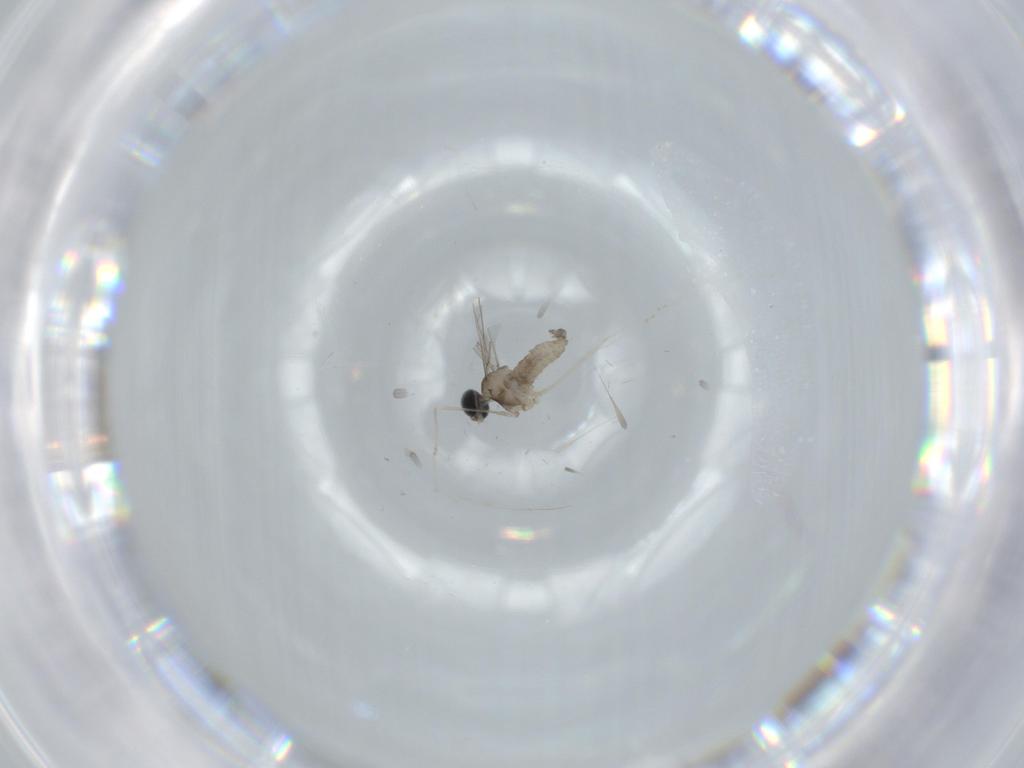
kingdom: Animalia
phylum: Arthropoda
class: Insecta
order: Diptera
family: Cecidomyiidae
